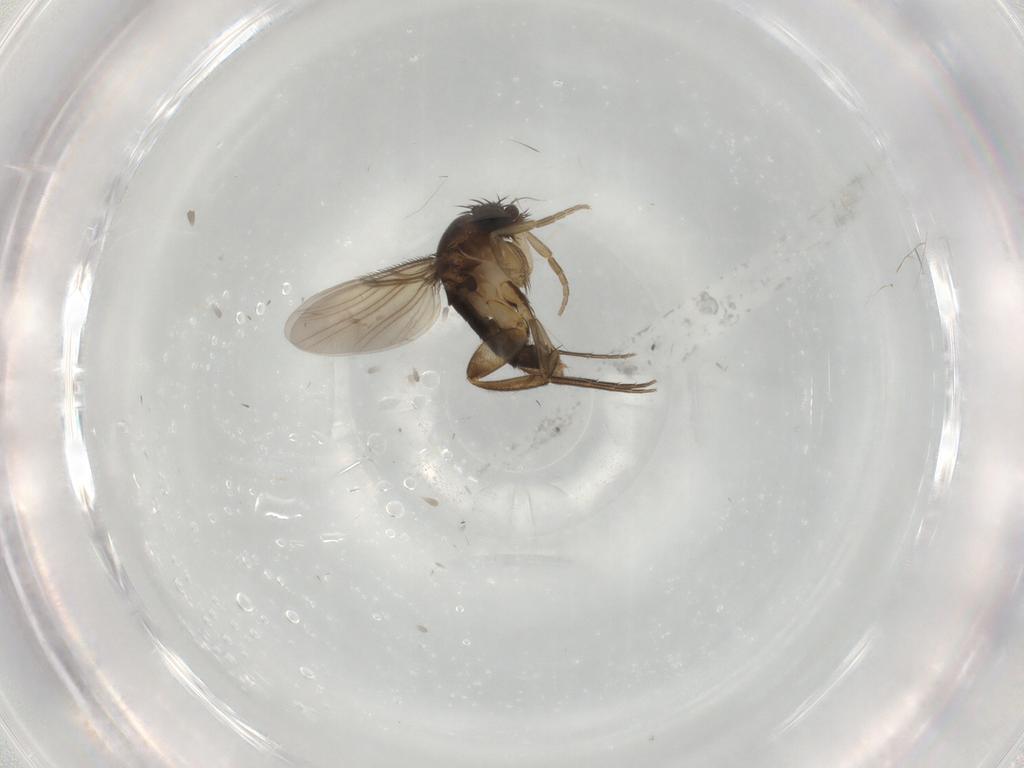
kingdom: Animalia
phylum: Arthropoda
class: Insecta
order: Diptera
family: Phoridae
